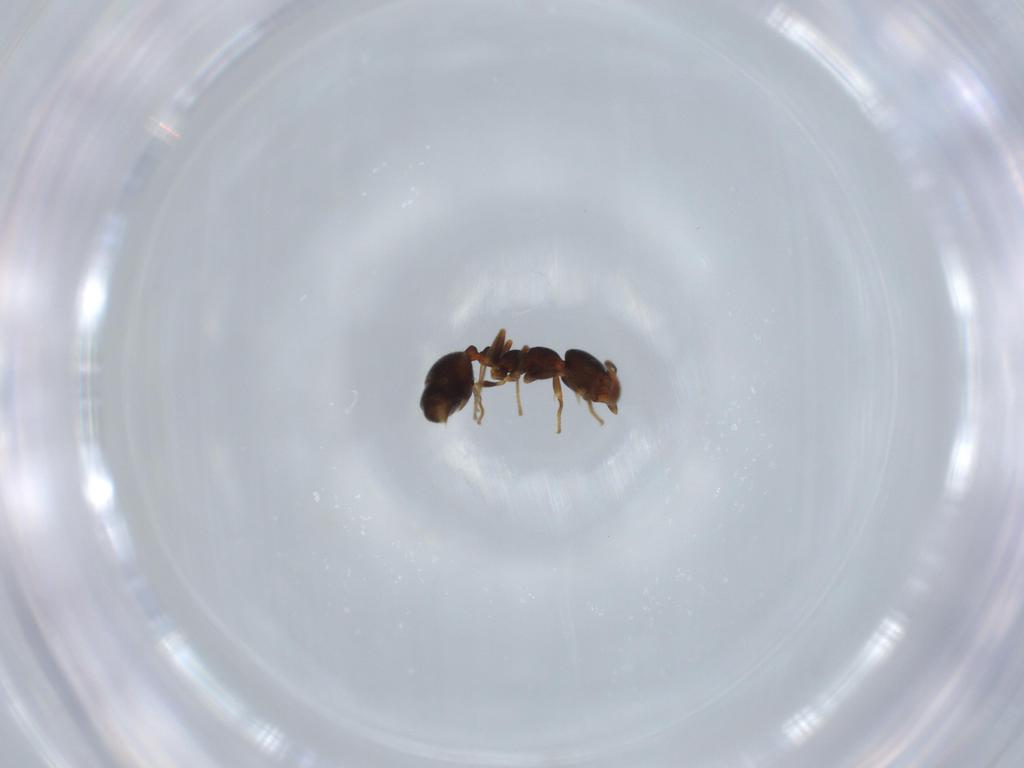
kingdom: Animalia
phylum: Arthropoda
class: Insecta
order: Hymenoptera
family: Formicidae
